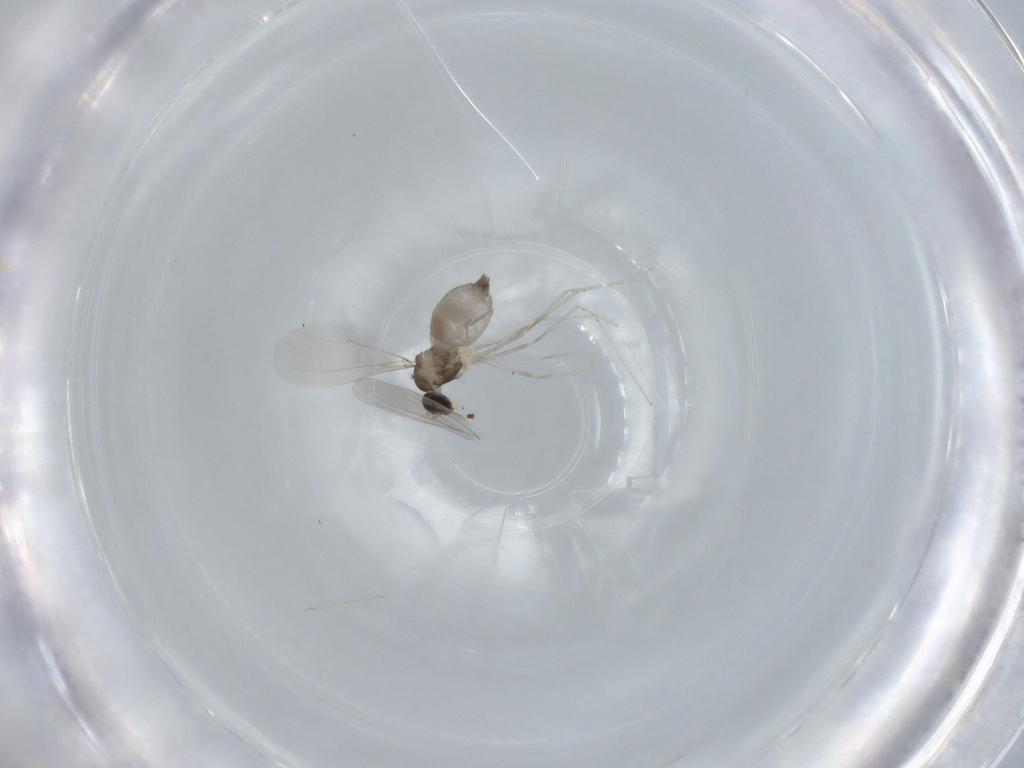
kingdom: Animalia
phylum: Arthropoda
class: Insecta
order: Diptera
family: Cecidomyiidae
